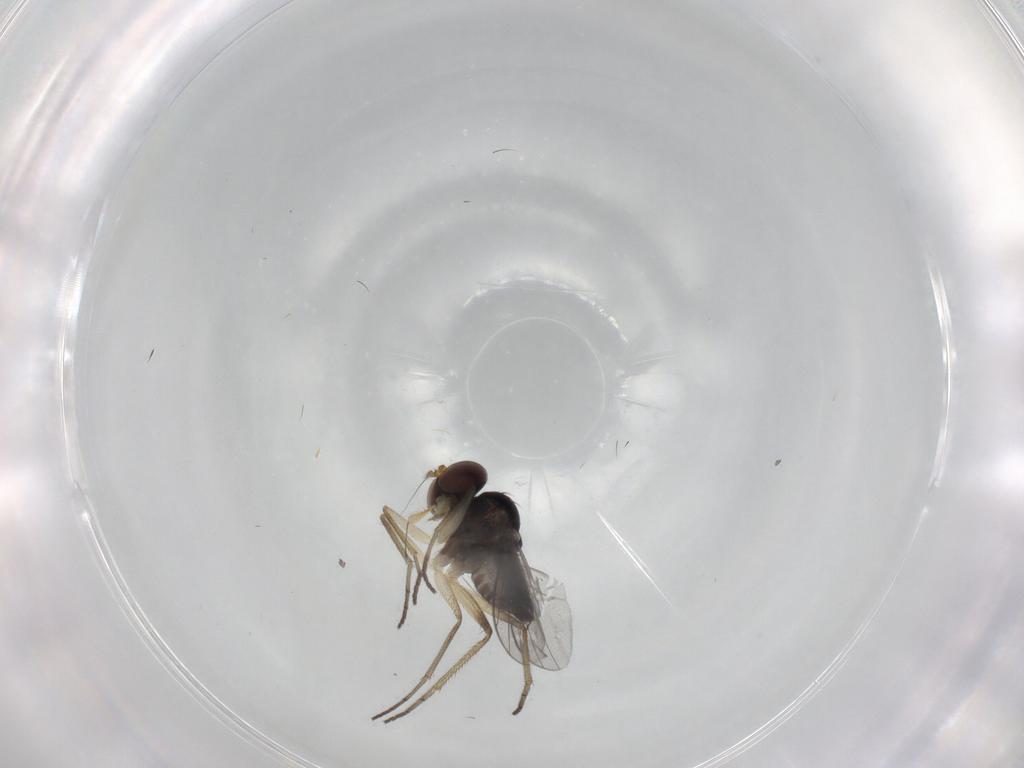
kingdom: Animalia
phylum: Arthropoda
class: Insecta
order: Diptera
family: Dolichopodidae
